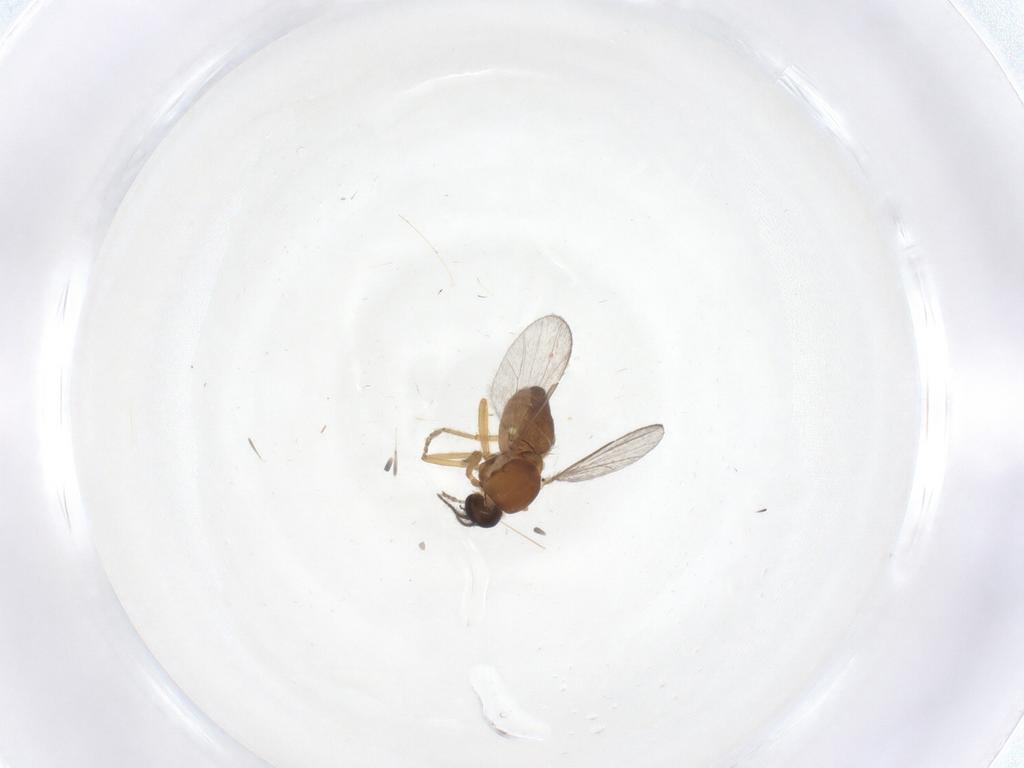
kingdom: Animalia
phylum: Arthropoda
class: Insecta
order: Diptera
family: Ceratopogonidae
